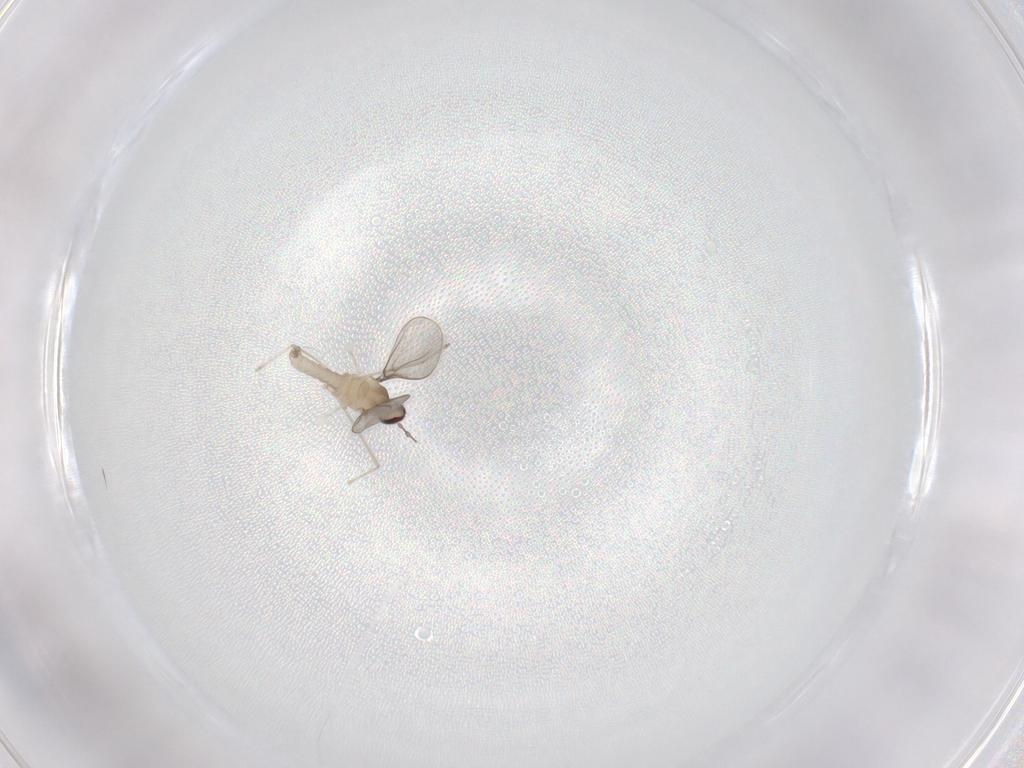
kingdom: Animalia
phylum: Arthropoda
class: Insecta
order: Diptera
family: Cecidomyiidae
